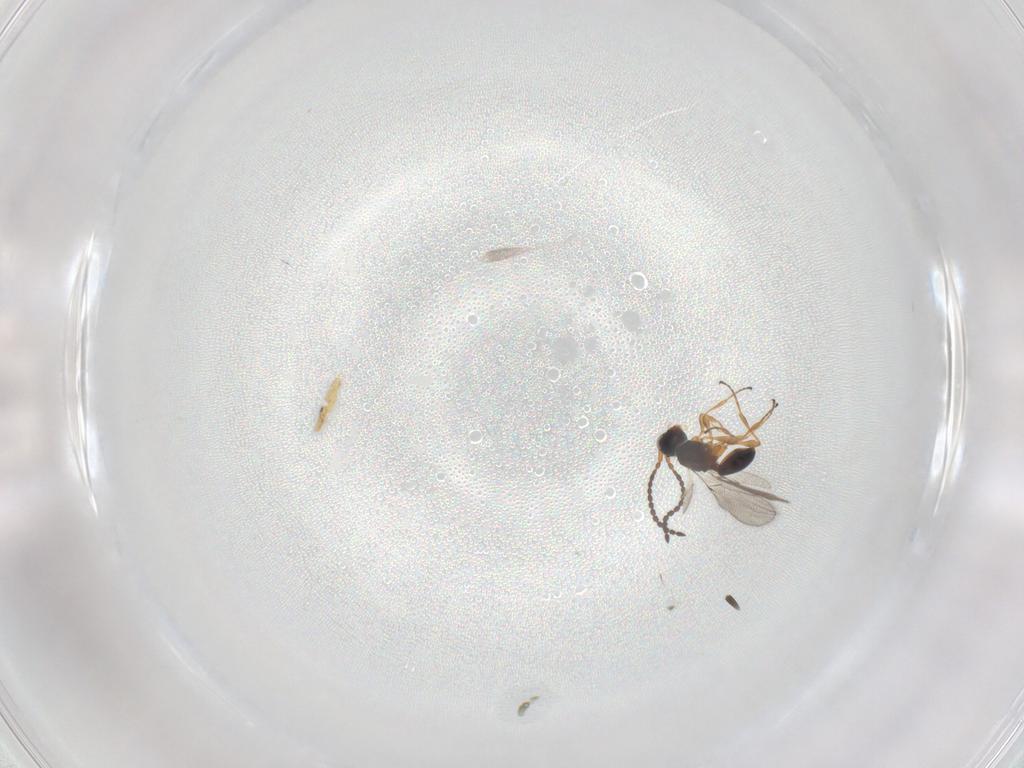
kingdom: Animalia
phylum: Arthropoda
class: Insecta
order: Hymenoptera
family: Diapriidae
